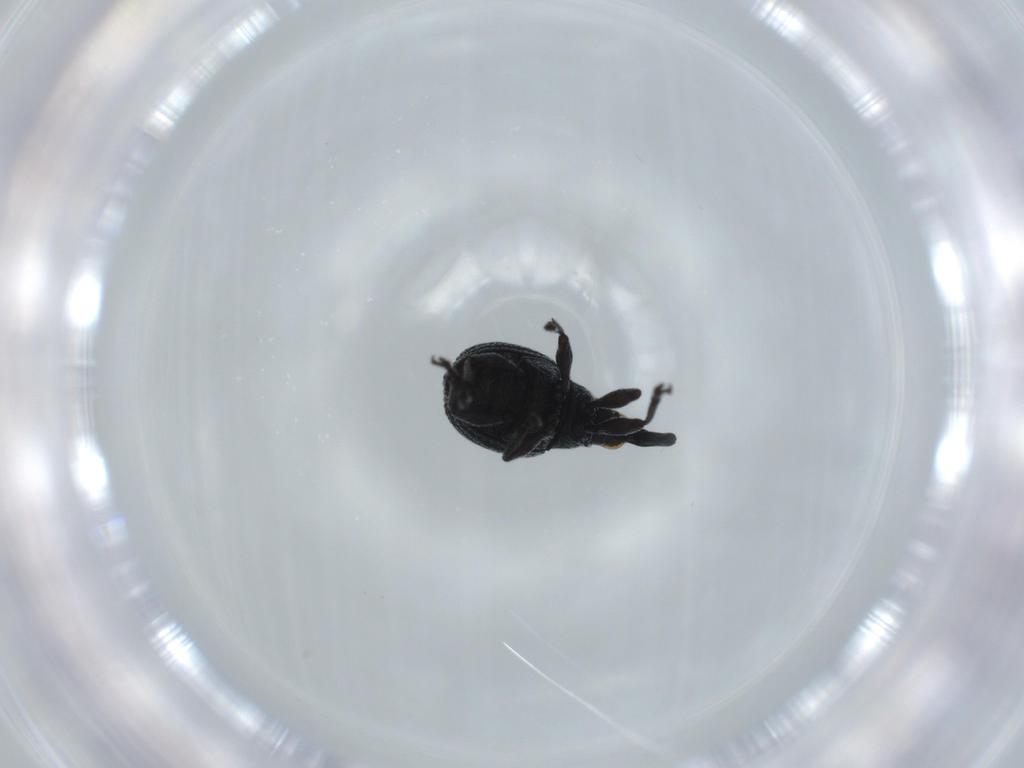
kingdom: Animalia
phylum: Arthropoda
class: Insecta
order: Coleoptera
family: Brentidae
